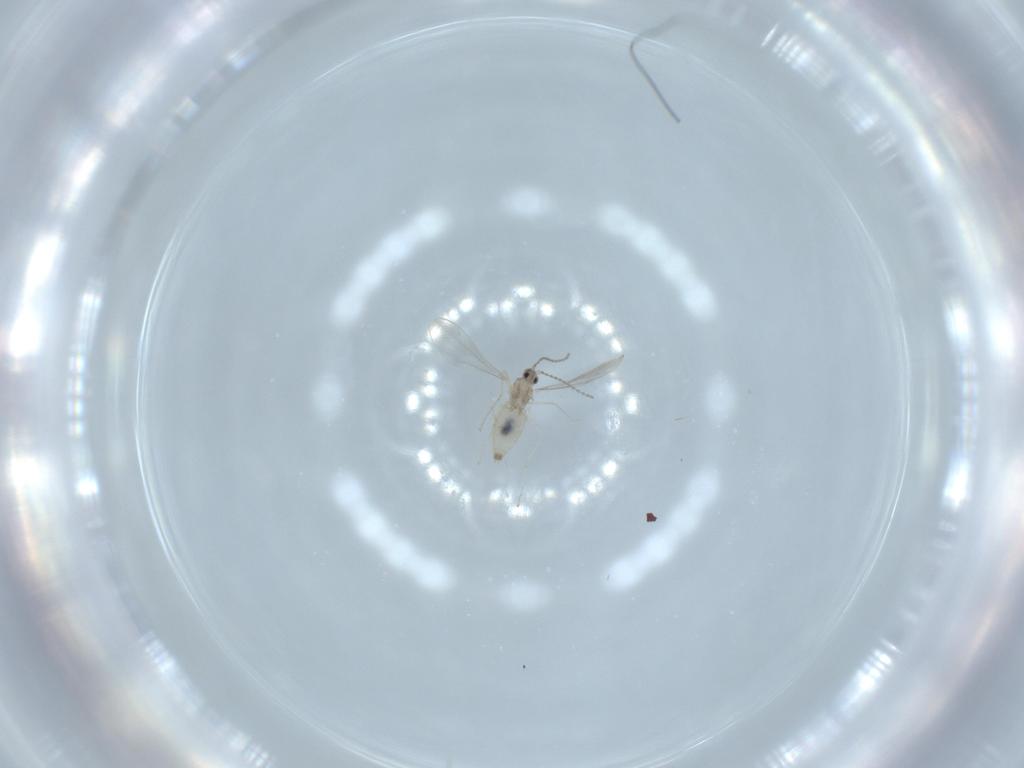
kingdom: Animalia
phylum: Arthropoda
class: Insecta
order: Diptera
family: Cecidomyiidae
